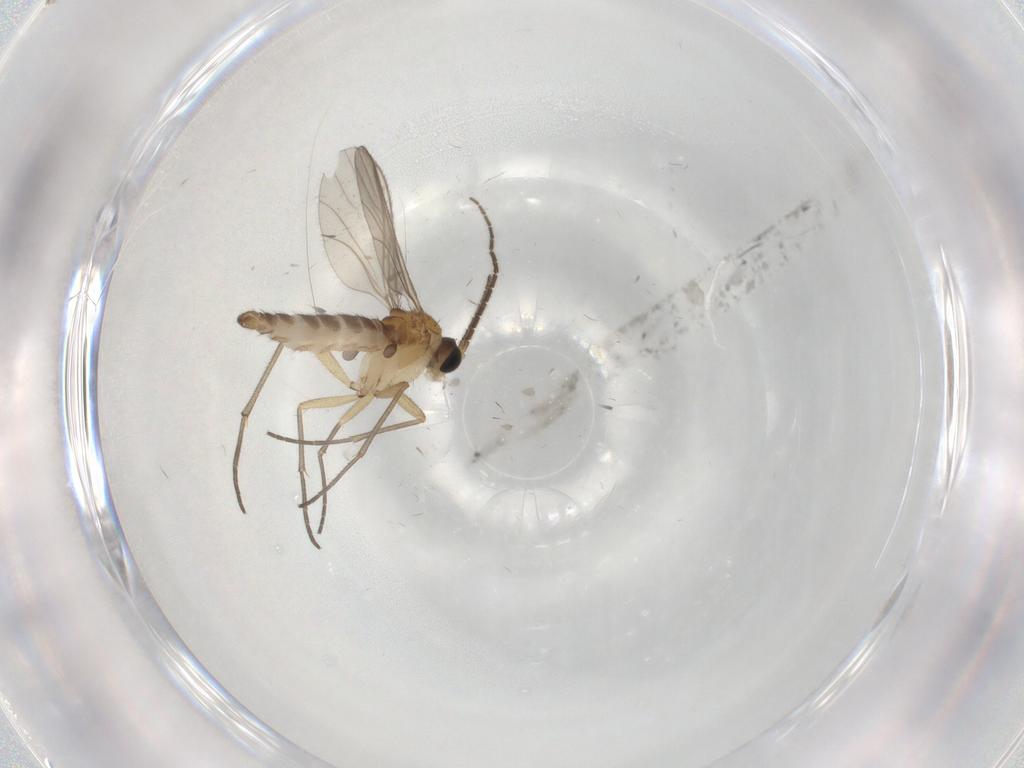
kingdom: Animalia
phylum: Arthropoda
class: Insecta
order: Diptera
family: Sciaridae
